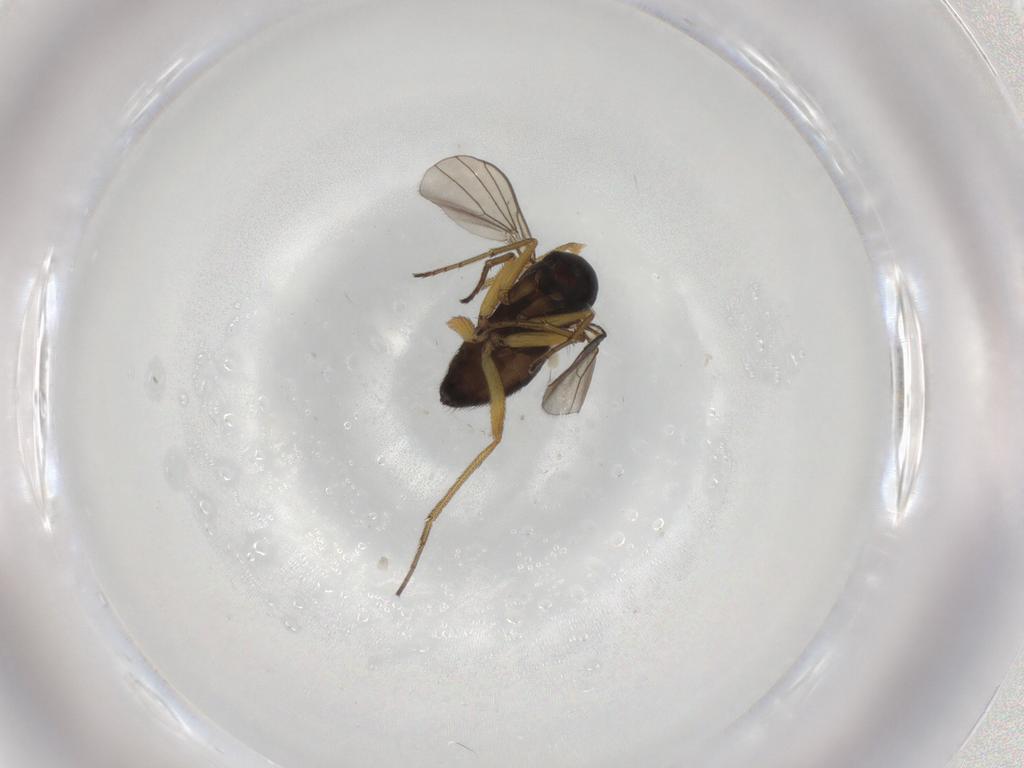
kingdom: Animalia
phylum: Arthropoda
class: Insecta
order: Diptera
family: Dolichopodidae
